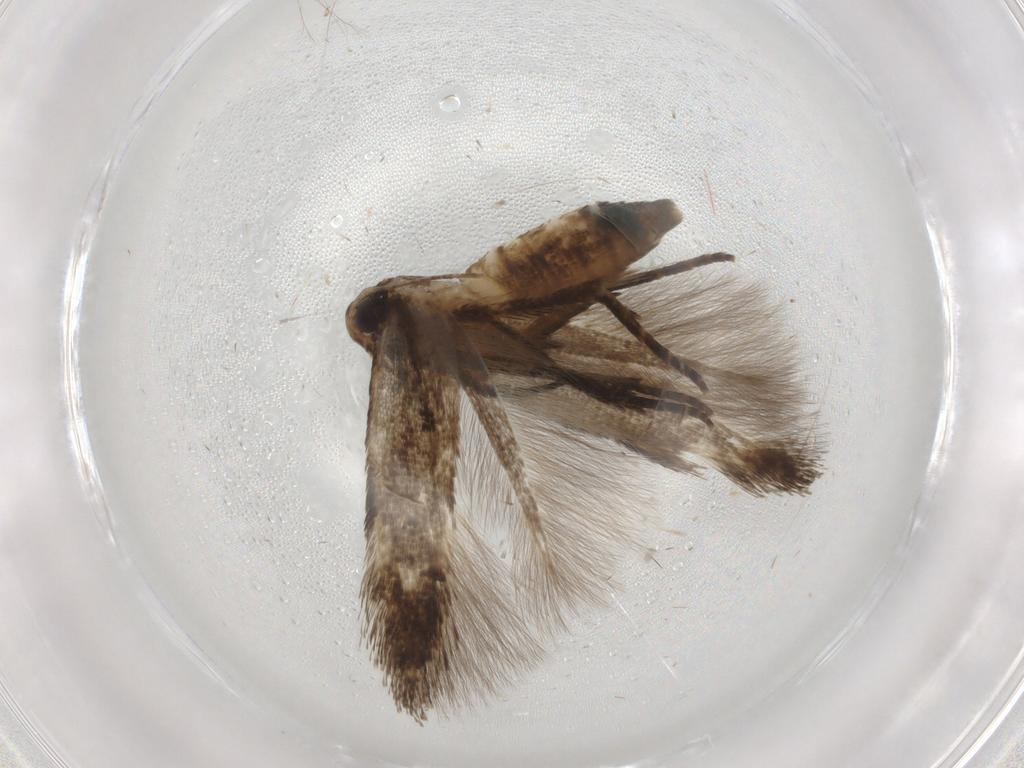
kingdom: Animalia
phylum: Arthropoda
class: Insecta
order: Lepidoptera
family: Cosmopterigidae
